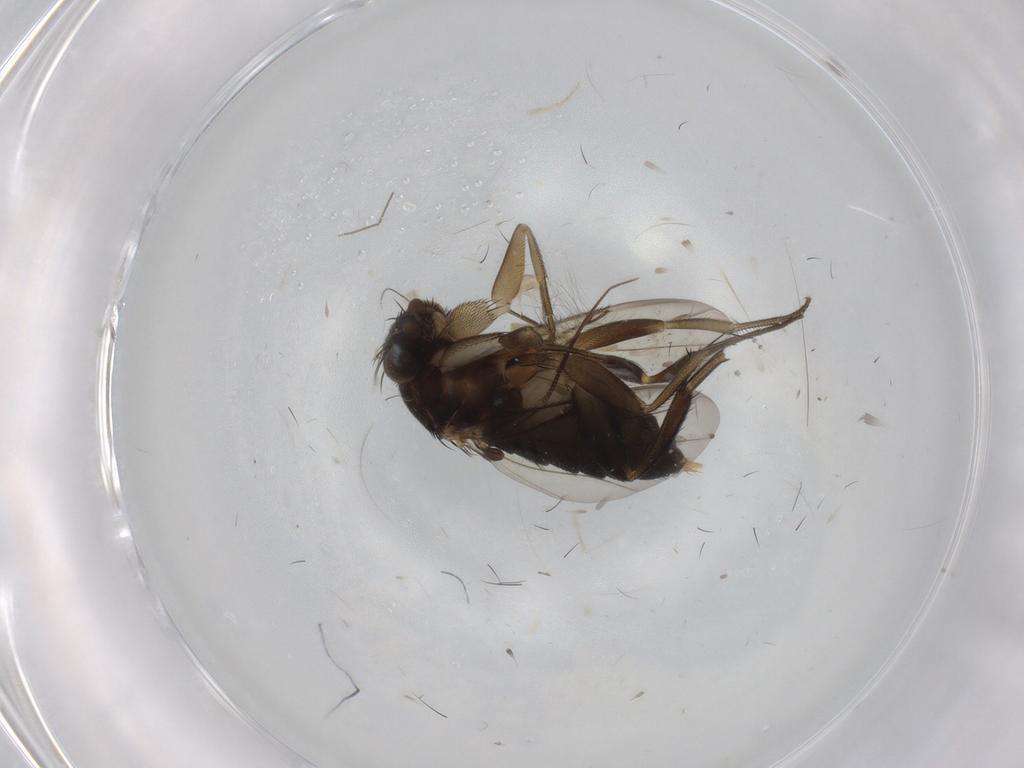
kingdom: Animalia
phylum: Arthropoda
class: Insecta
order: Diptera
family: Phoridae
